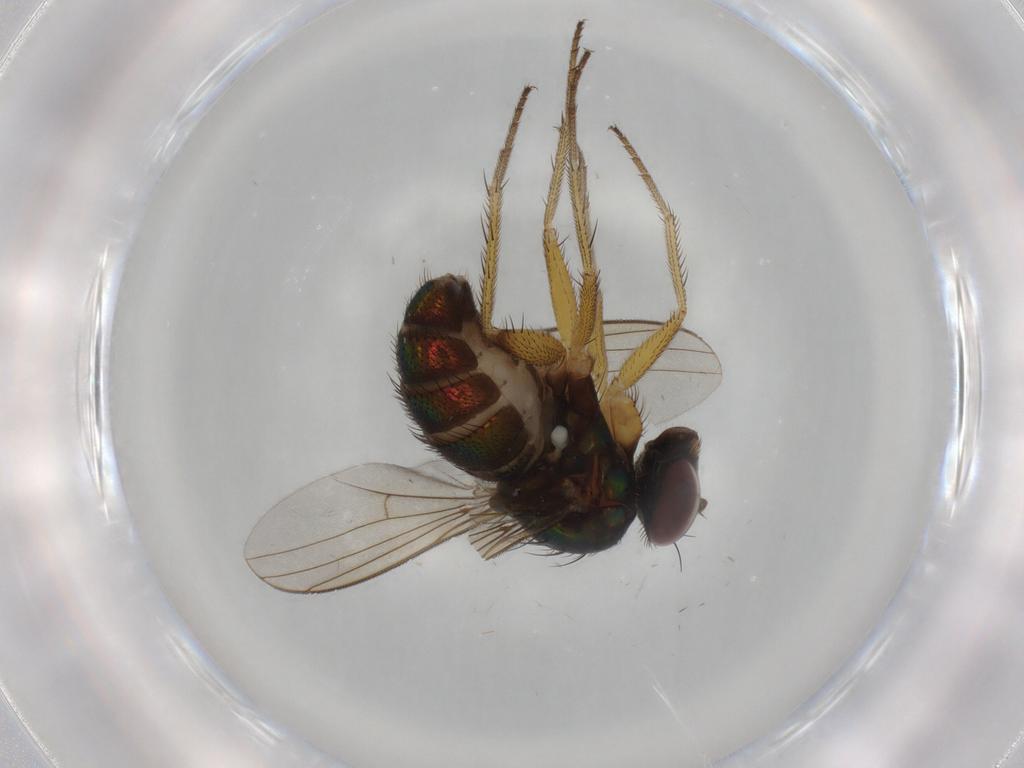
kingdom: Animalia
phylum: Arthropoda
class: Insecta
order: Diptera
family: Dolichopodidae
